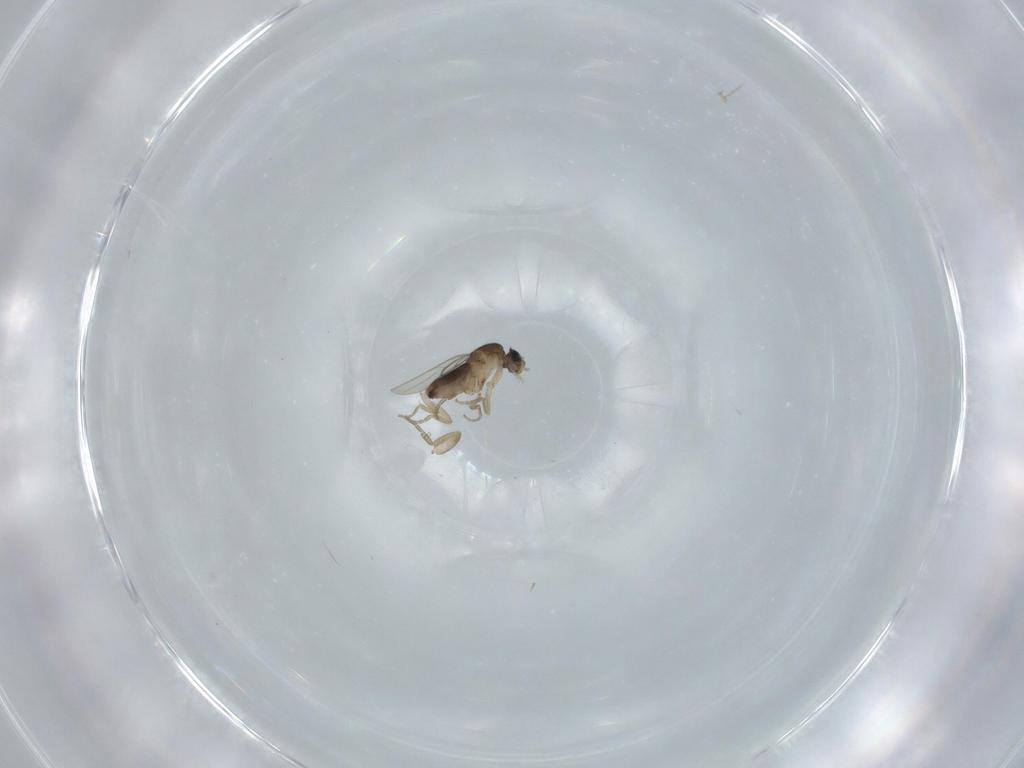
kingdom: Animalia
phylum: Arthropoda
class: Insecta
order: Diptera
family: Phoridae
